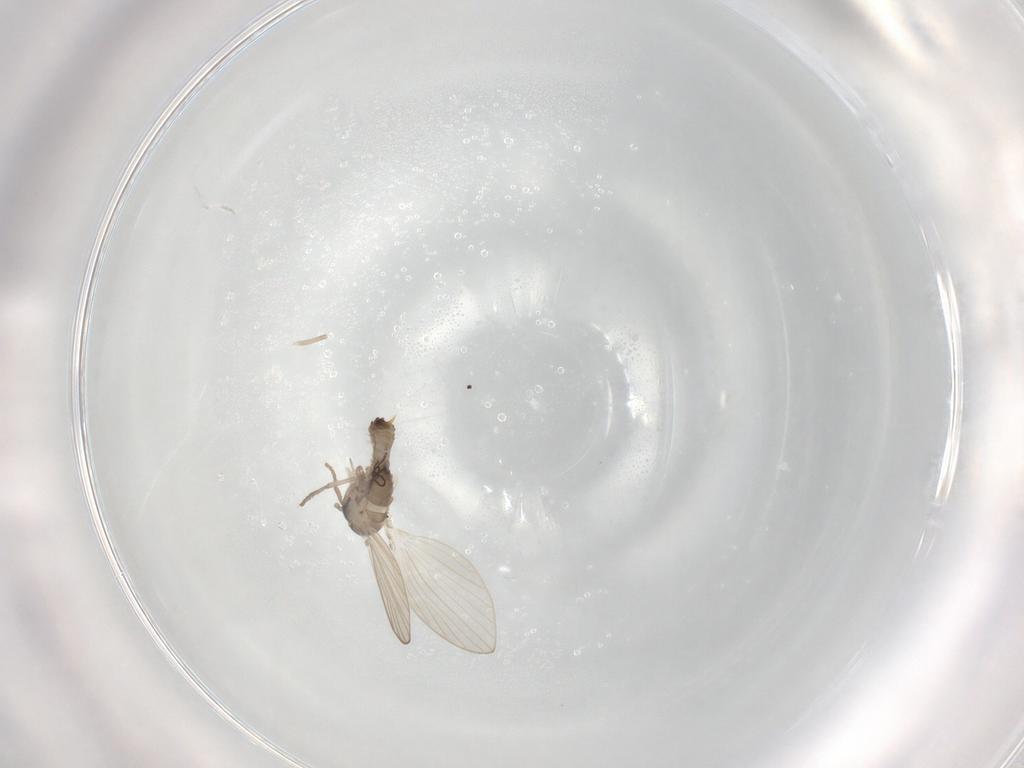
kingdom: Animalia
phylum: Arthropoda
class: Insecta
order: Diptera
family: Psychodidae
